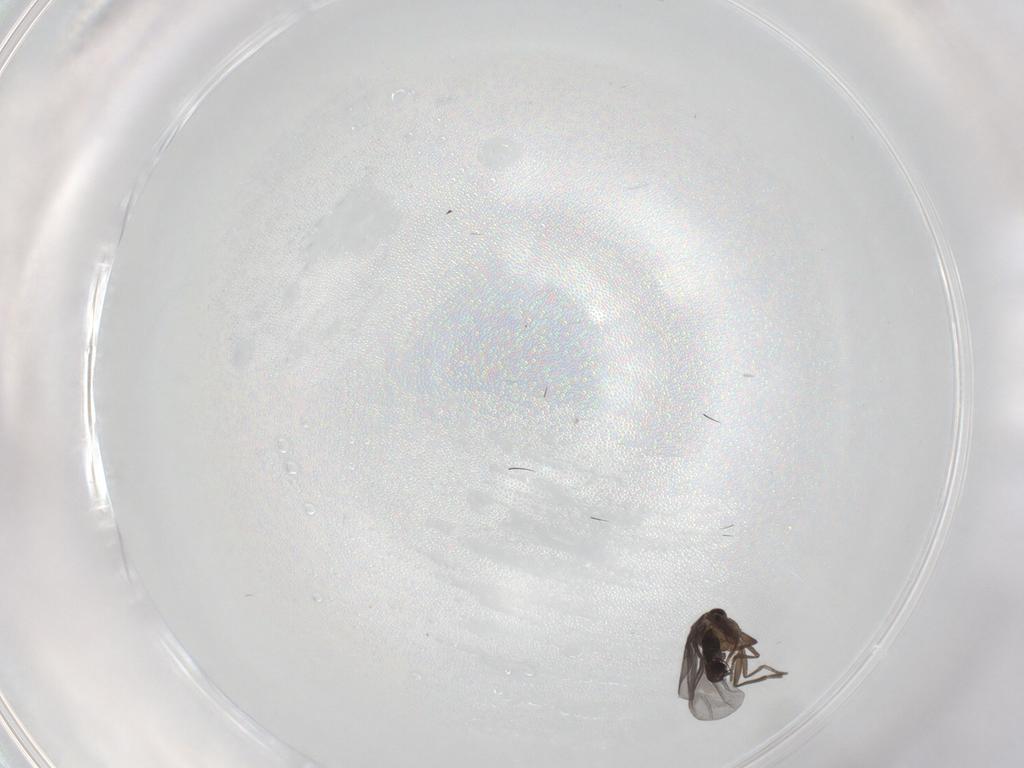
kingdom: Animalia
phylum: Arthropoda
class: Insecta
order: Diptera
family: Phoridae
